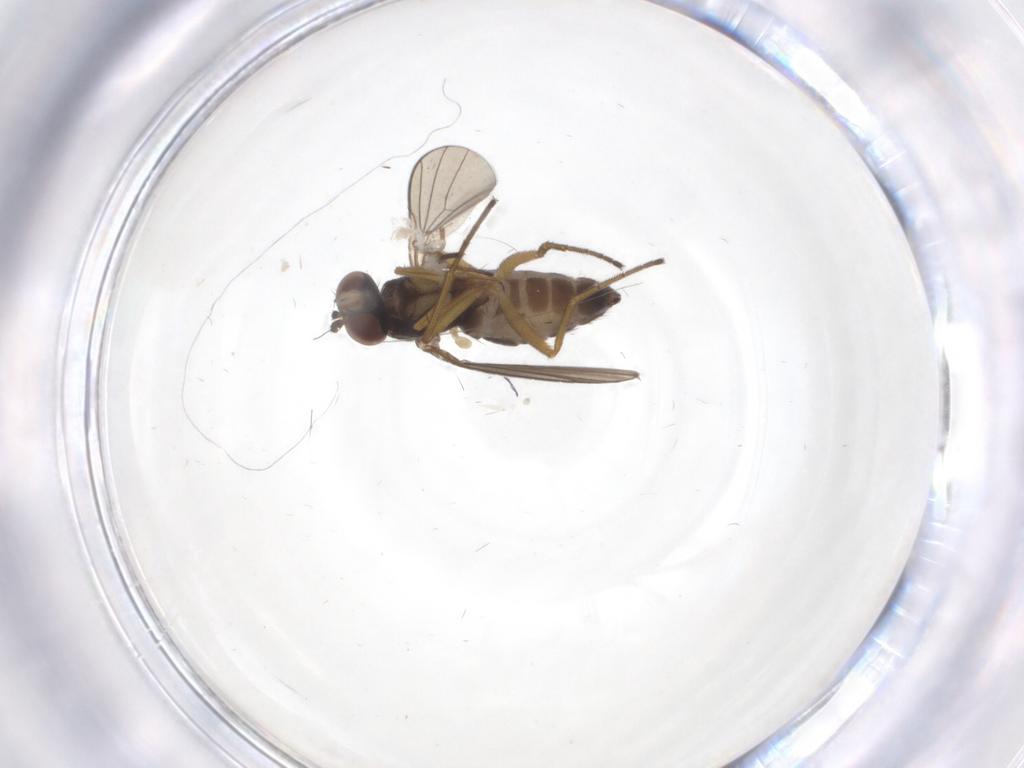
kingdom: Animalia
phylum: Arthropoda
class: Insecta
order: Diptera
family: Dolichopodidae
